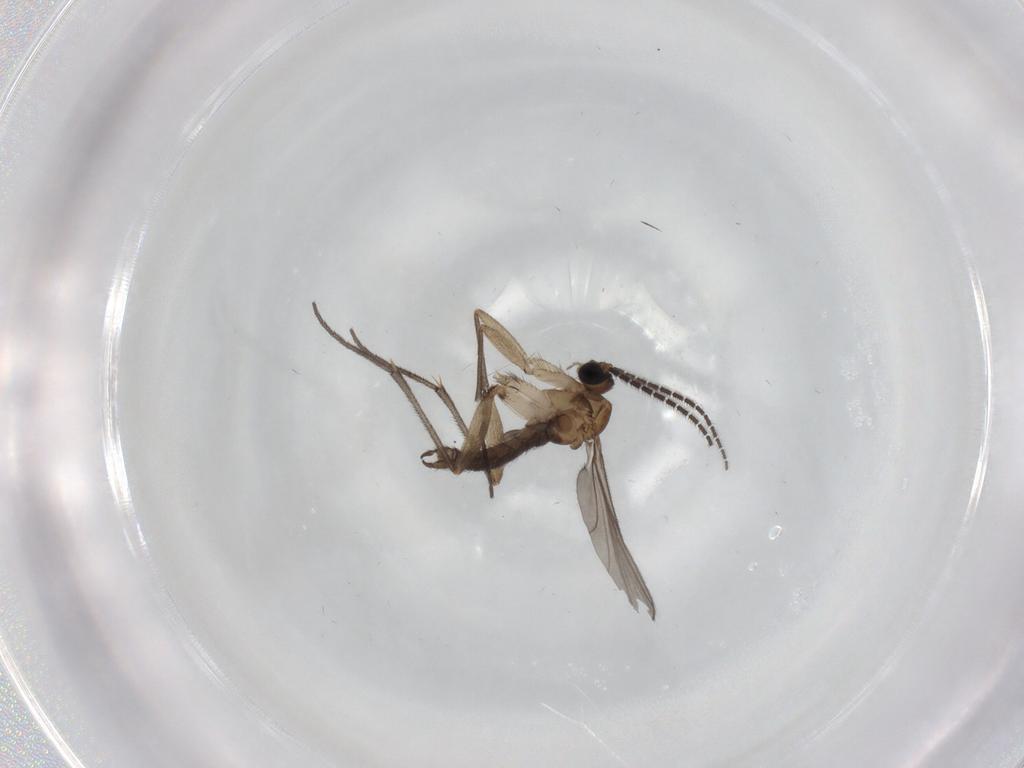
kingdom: Animalia
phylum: Arthropoda
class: Insecta
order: Diptera
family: Sciaridae
